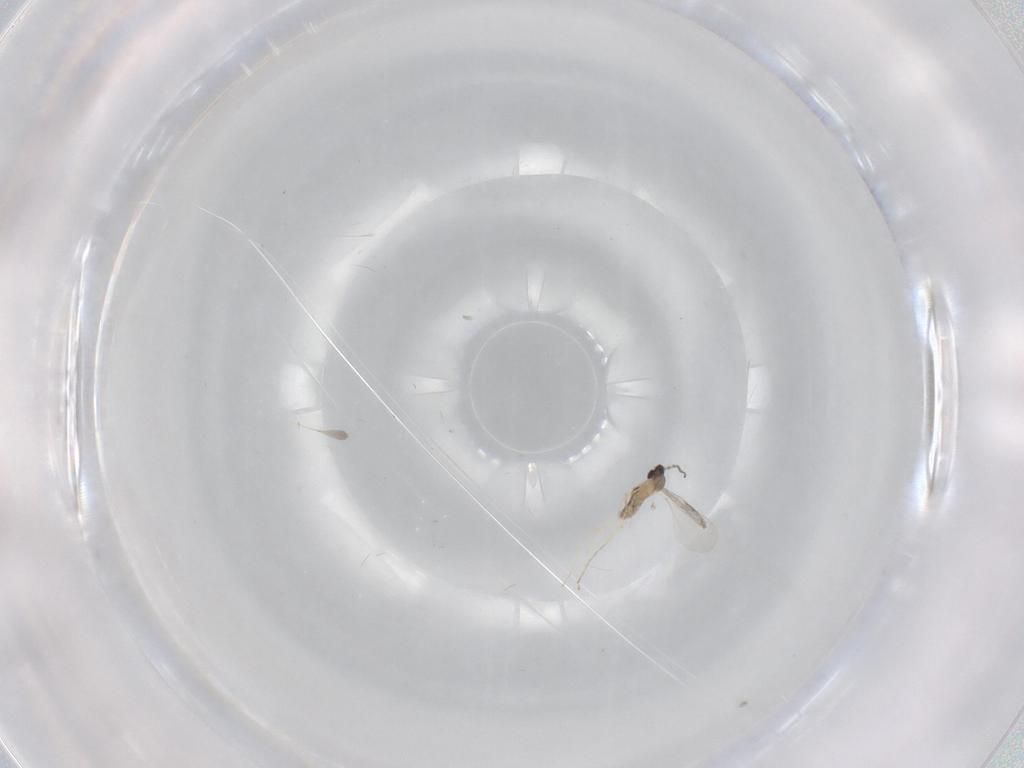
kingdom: Animalia
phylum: Arthropoda
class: Insecta
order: Diptera
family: Cecidomyiidae
